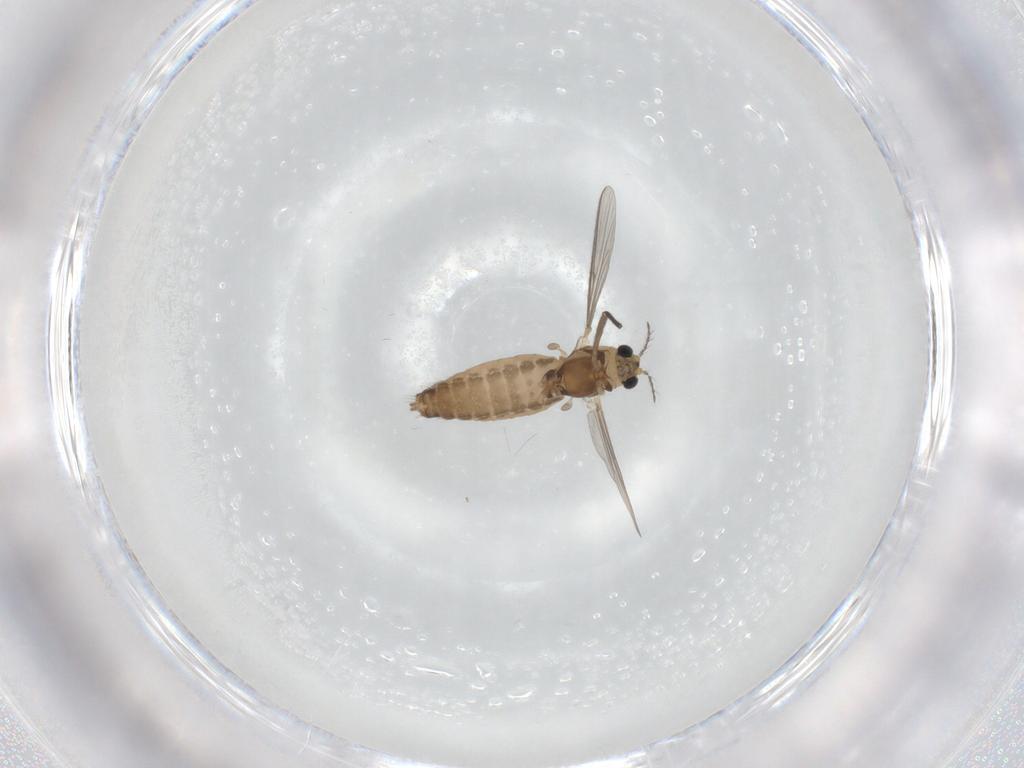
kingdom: Animalia
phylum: Arthropoda
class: Insecta
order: Diptera
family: Chironomidae
